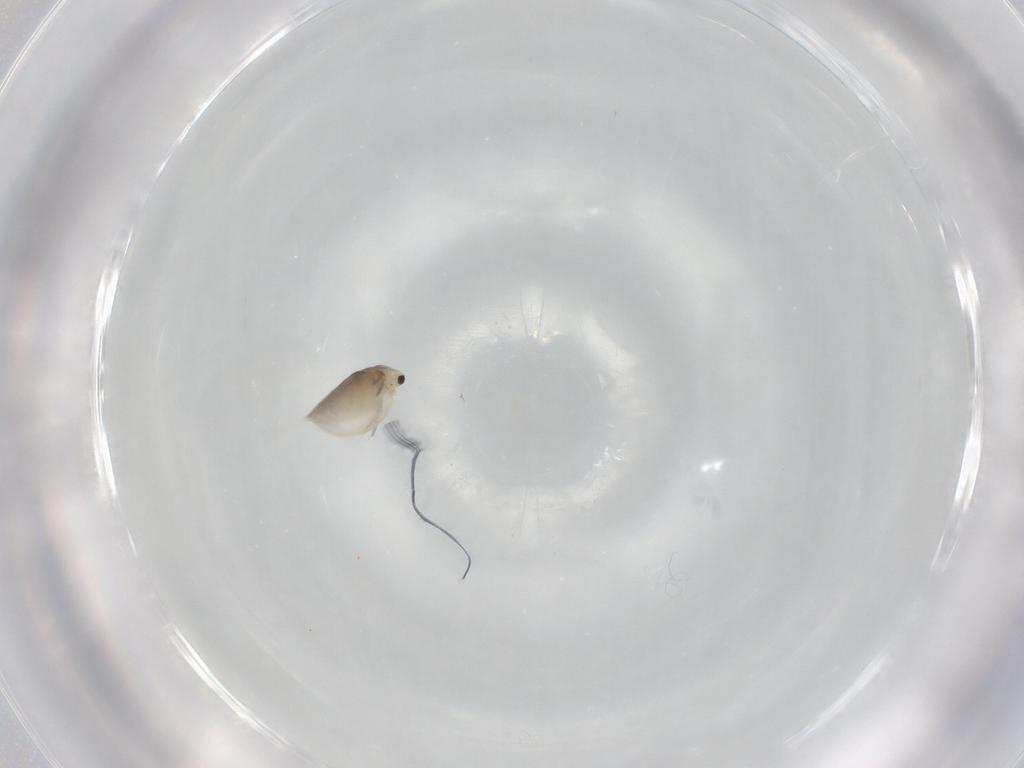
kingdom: Animalia
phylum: Arthropoda
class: Branchiopoda
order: Diplostraca
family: Daphniidae
